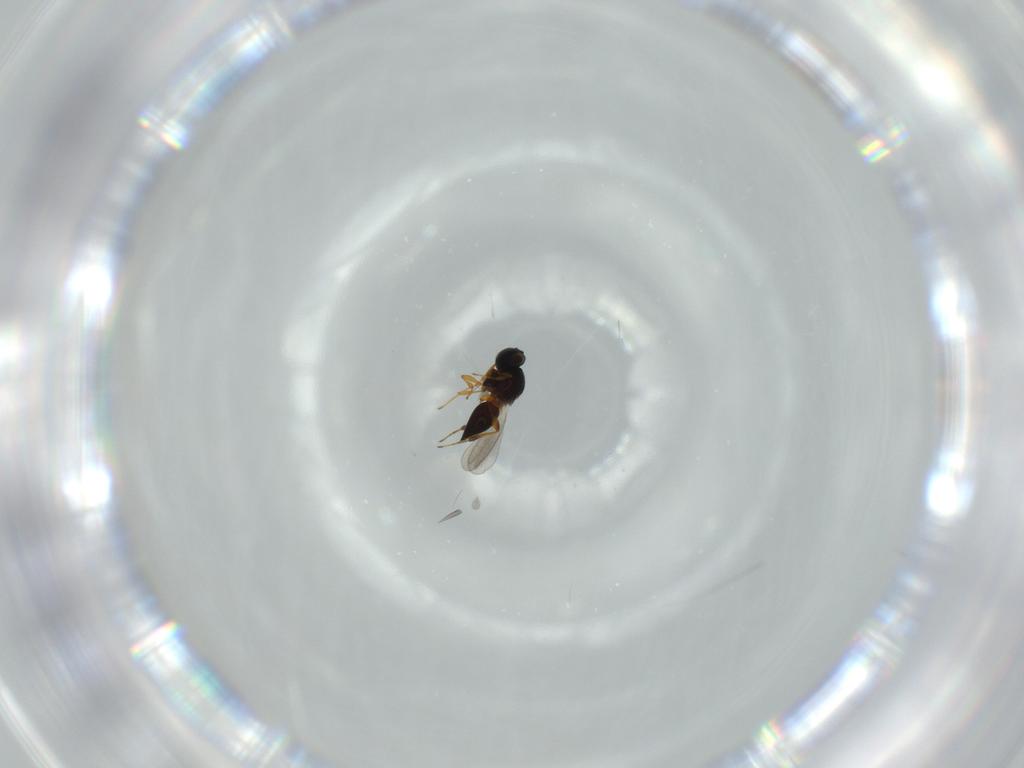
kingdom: Animalia
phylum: Arthropoda
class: Insecta
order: Hymenoptera
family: Platygastridae
